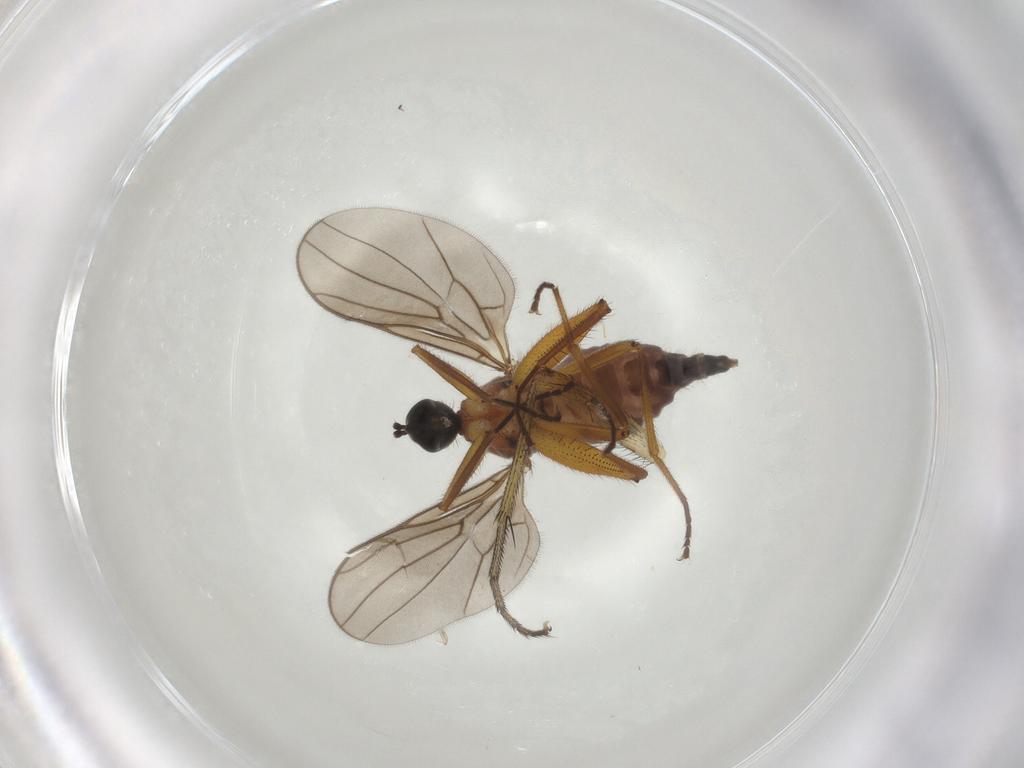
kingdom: Animalia
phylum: Arthropoda
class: Insecta
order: Diptera
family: Hybotidae
